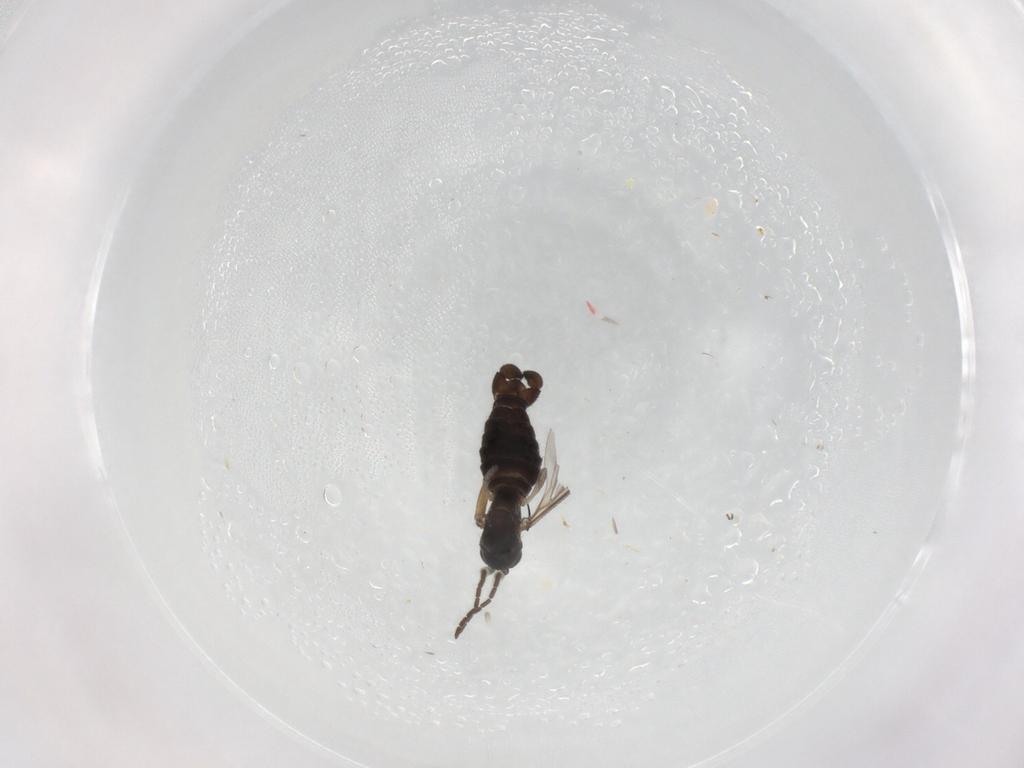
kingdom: Animalia
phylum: Arthropoda
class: Insecta
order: Diptera
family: Sciaridae
